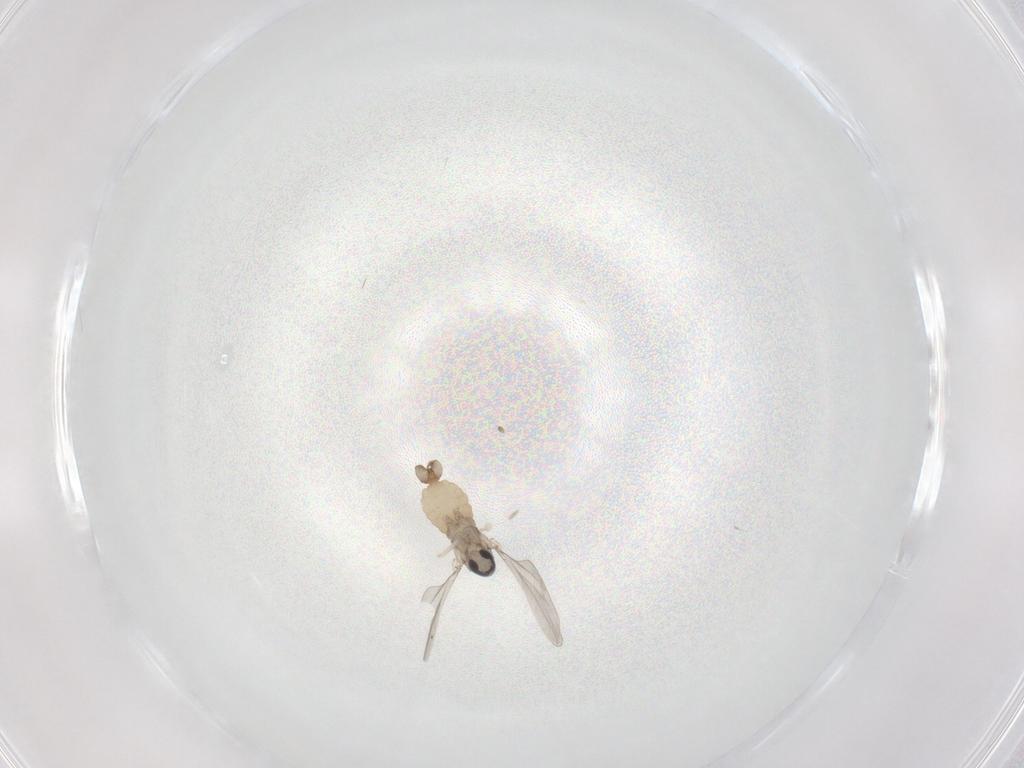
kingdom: Animalia
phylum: Arthropoda
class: Insecta
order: Diptera
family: Cecidomyiidae
